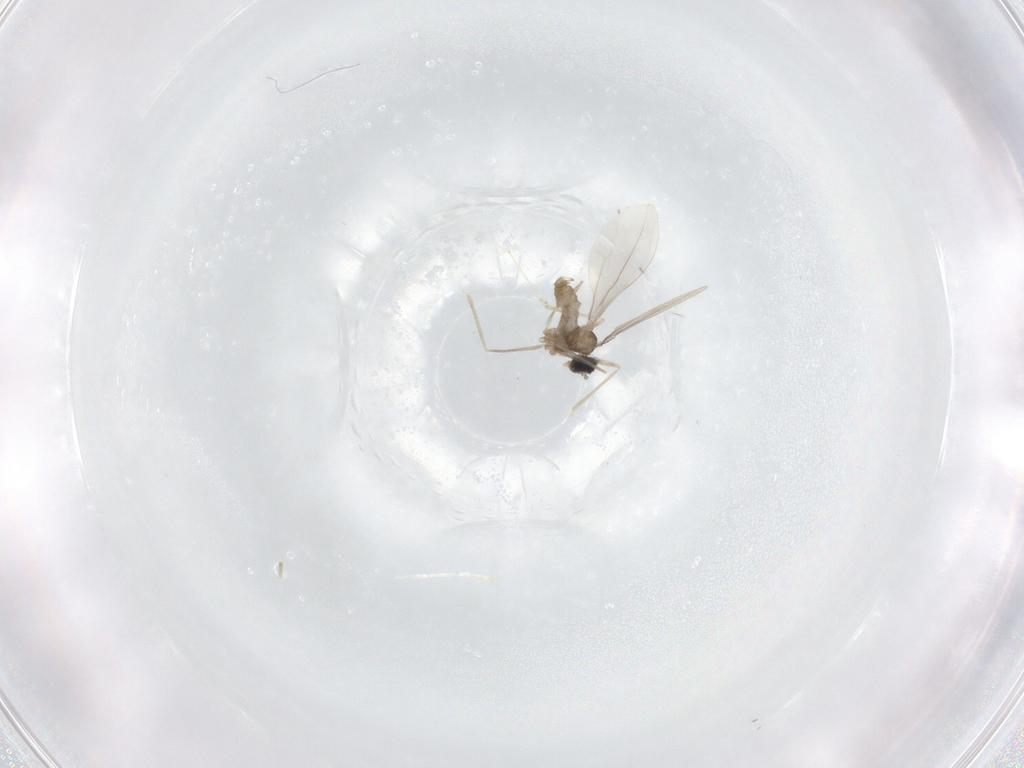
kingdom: Animalia
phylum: Arthropoda
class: Insecta
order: Diptera
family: Cecidomyiidae
